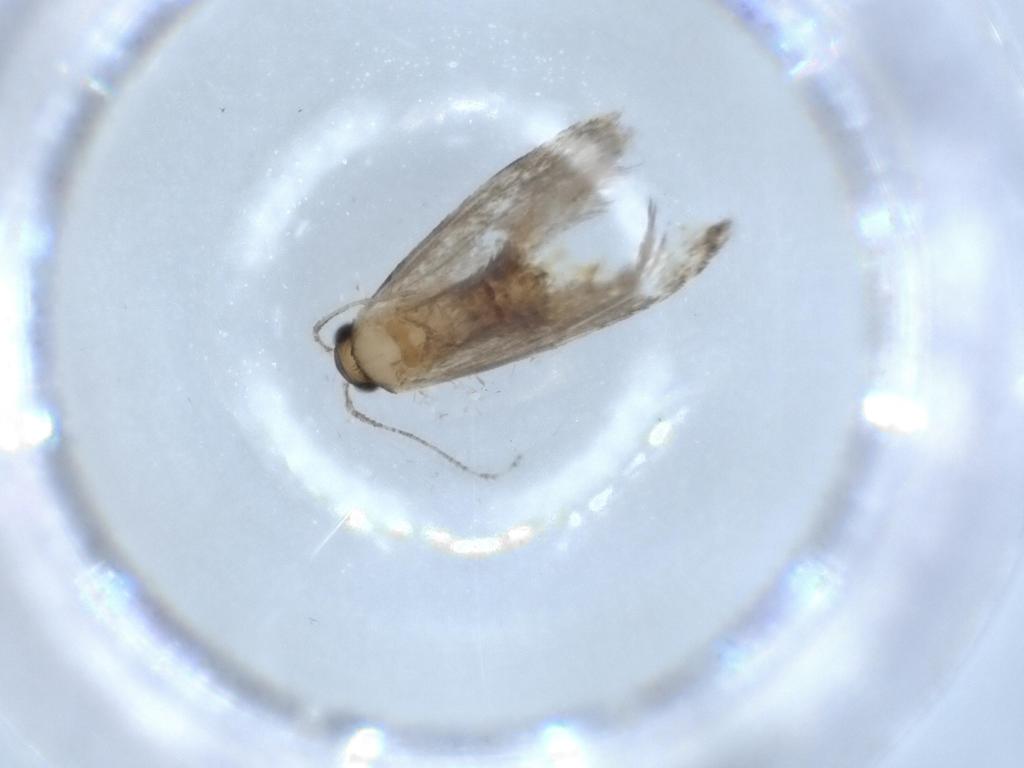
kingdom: Animalia
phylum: Arthropoda
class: Insecta
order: Lepidoptera
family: Tineidae
